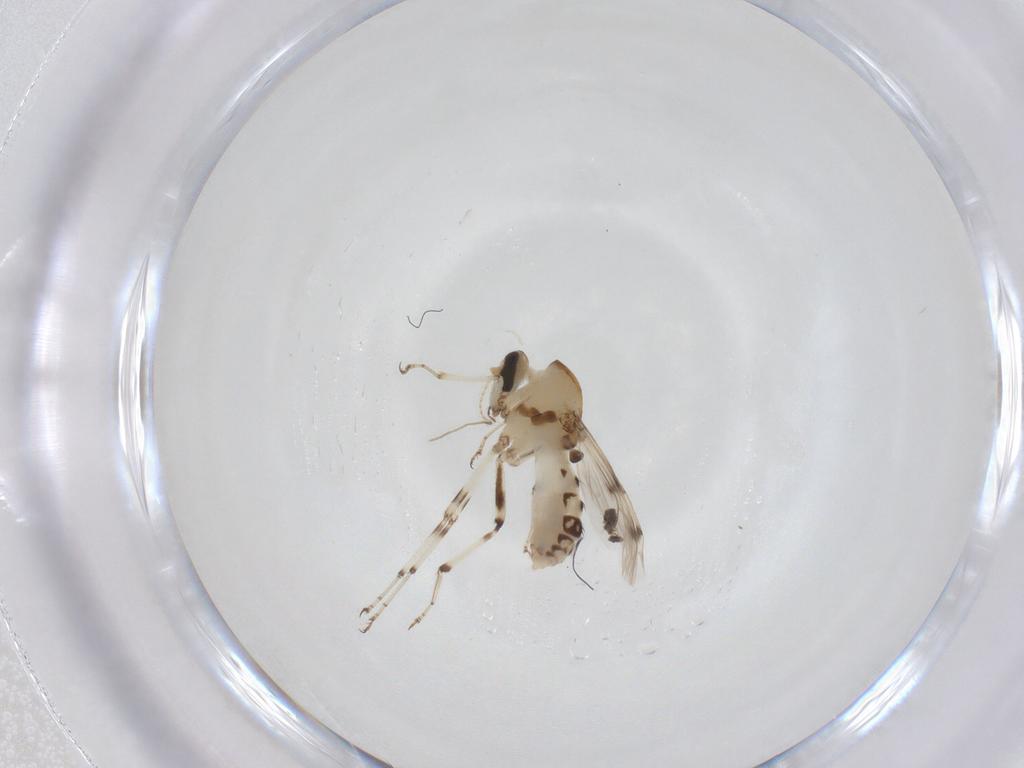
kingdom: Animalia
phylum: Arthropoda
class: Insecta
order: Diptera
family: Ceratopogonidae
